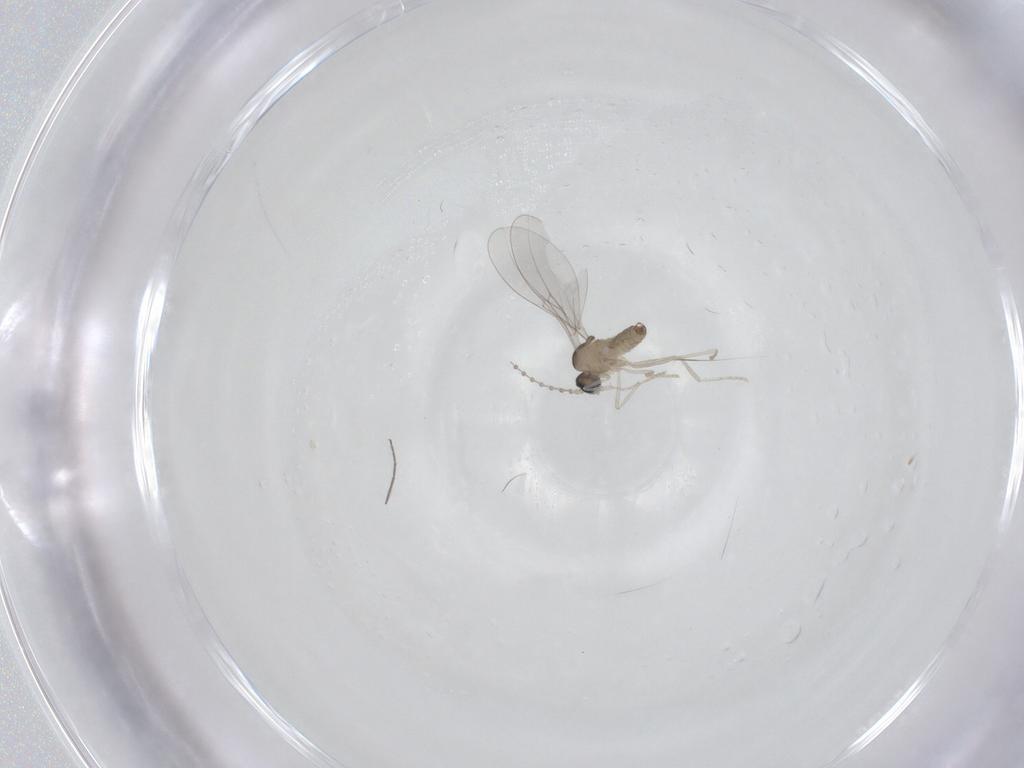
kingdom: Animalia
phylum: Arthropoda
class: Insecta
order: Diptera
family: Cecidomyiidae
